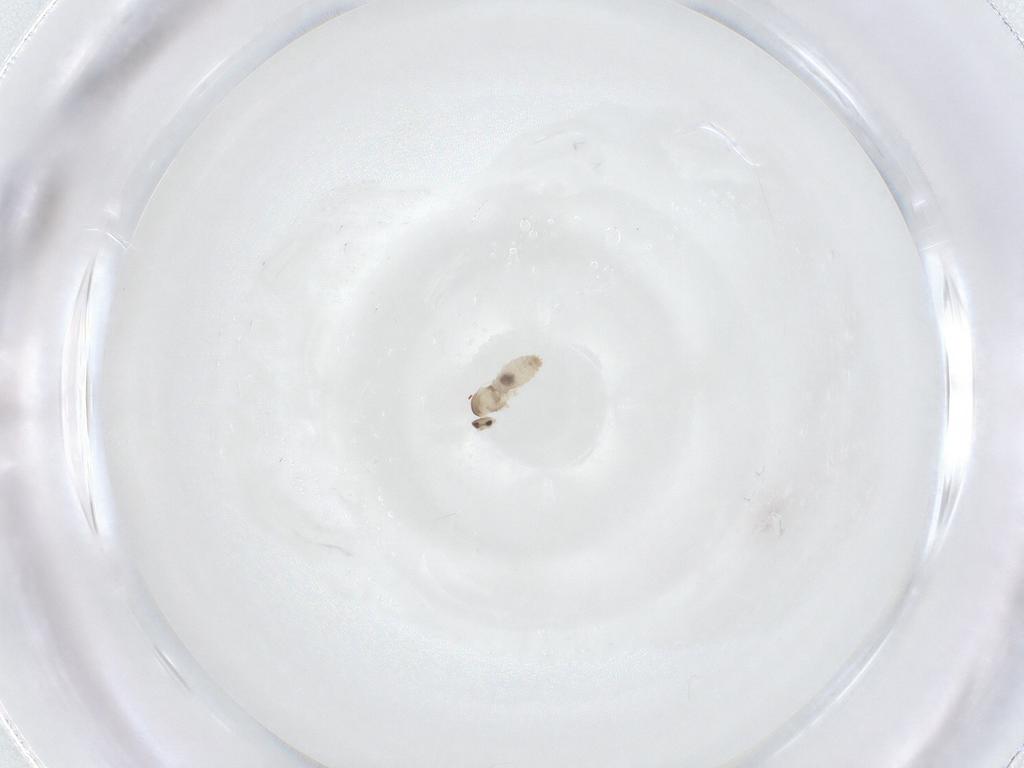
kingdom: Animalia
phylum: Arthropoda
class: Insecta
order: Diptera
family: Cecidomyiidae
